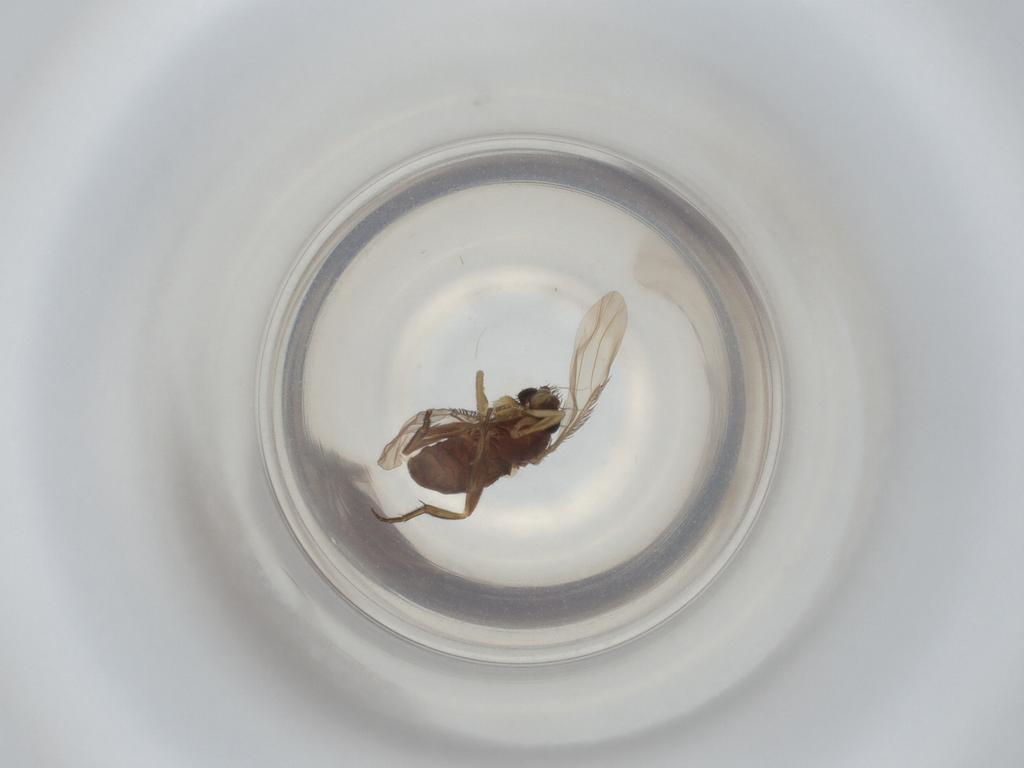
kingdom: Animalia
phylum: Arthropoda
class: Insecta
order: Diptera
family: Phoridae
